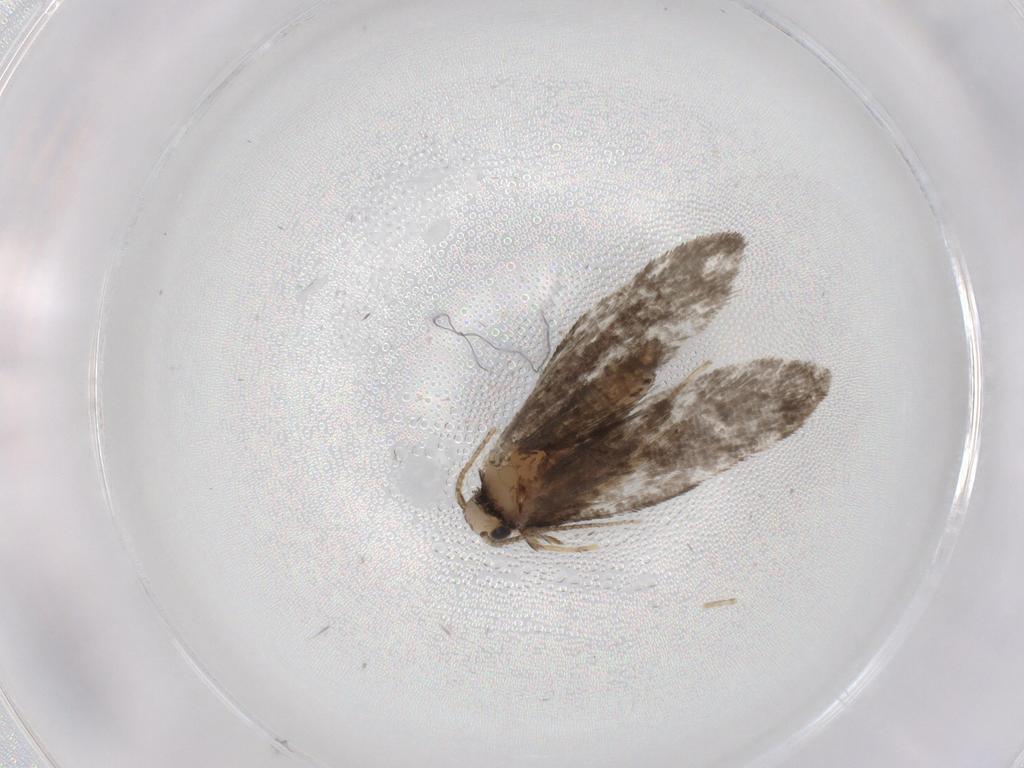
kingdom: Animalia
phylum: Arthropoda
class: Insecta
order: Lepidoptera
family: Psychidae
